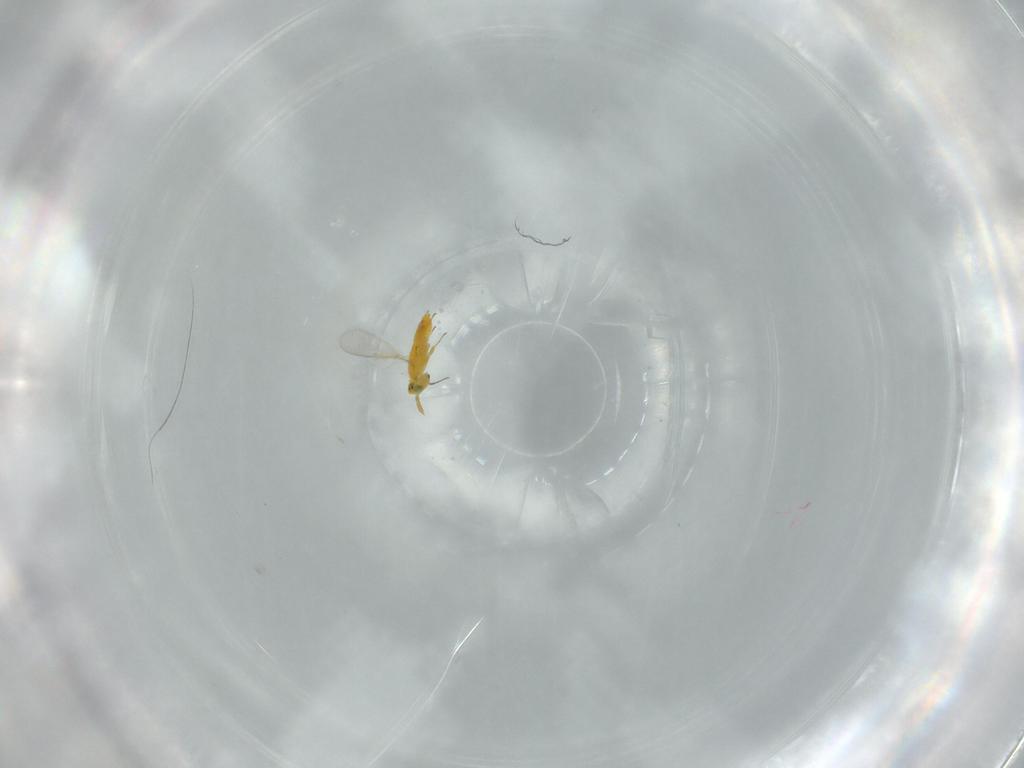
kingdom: Animalia
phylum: Arthropoda
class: Insecta
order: Hymenoptera
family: Aphelinidae
